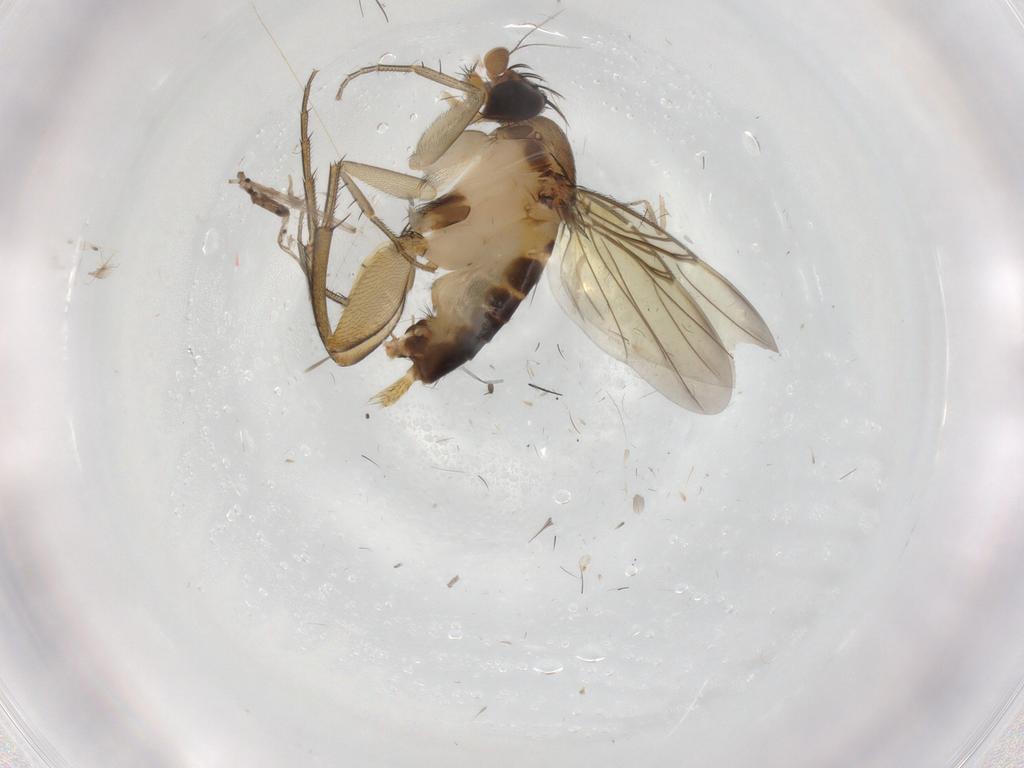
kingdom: Animalia
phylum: Arthropoda
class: Insecta
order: Diptera
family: Phoridae
